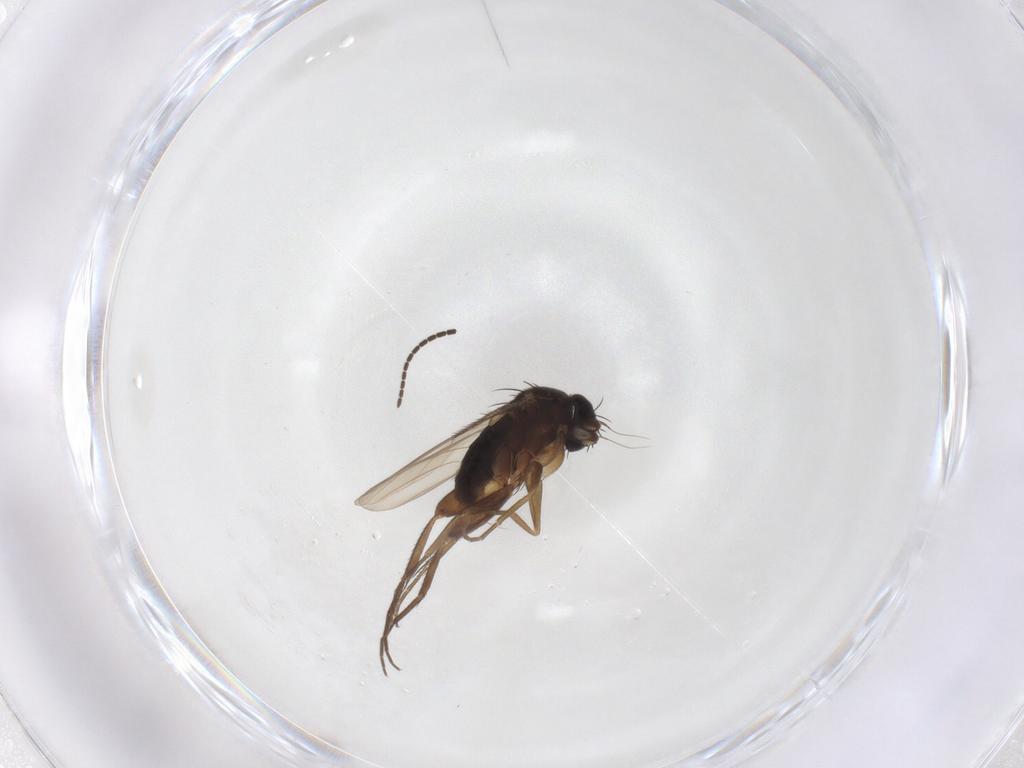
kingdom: Animalia
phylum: Arthropoda
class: Insecta
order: Diptera
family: Phoridae
